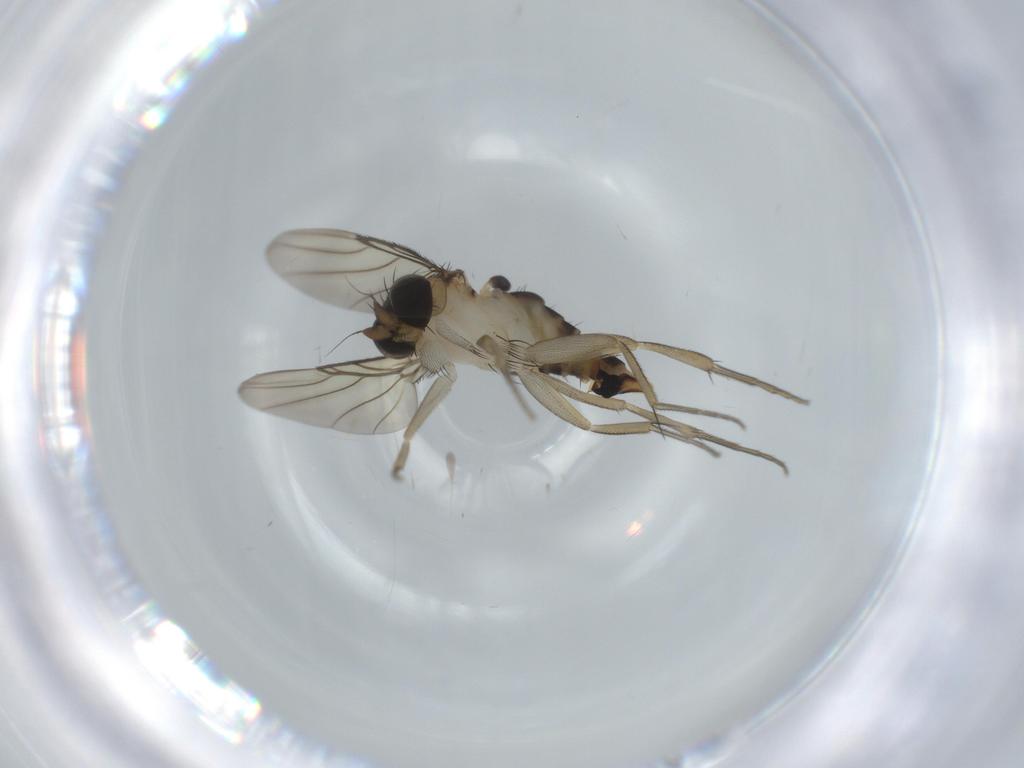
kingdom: Animalia
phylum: Arthropoda
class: Insecta
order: Diptera
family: Phoridae
